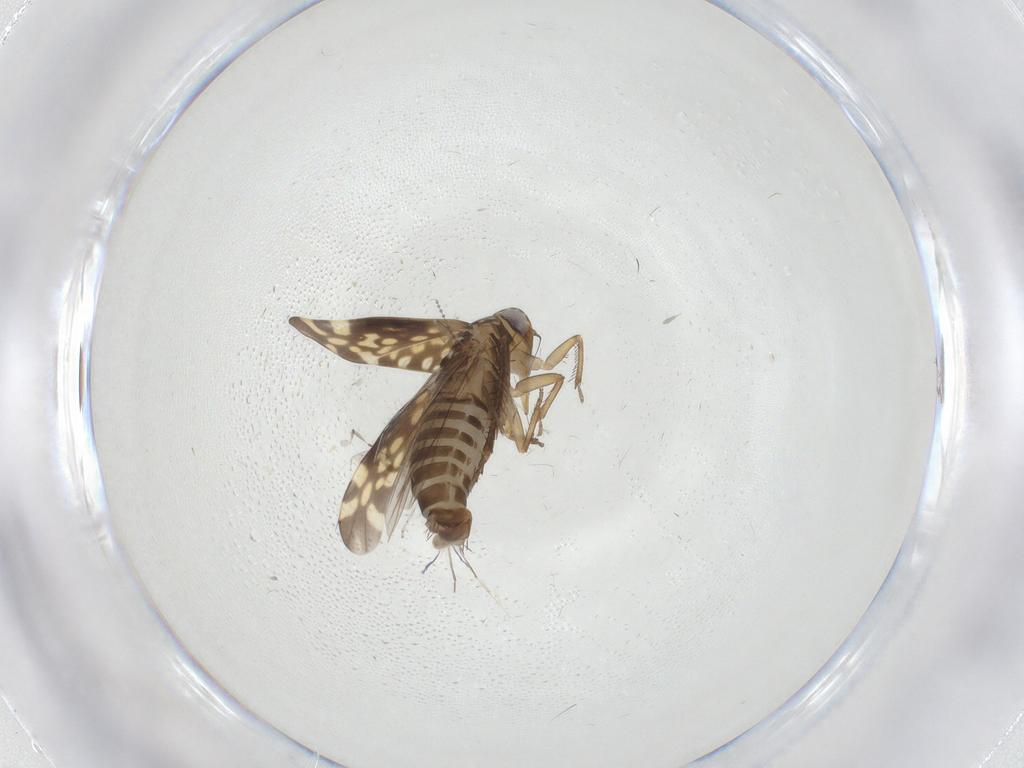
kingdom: Animalia
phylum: Arthropoda
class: Insecta
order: Hemiptera
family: Cicadellidae
